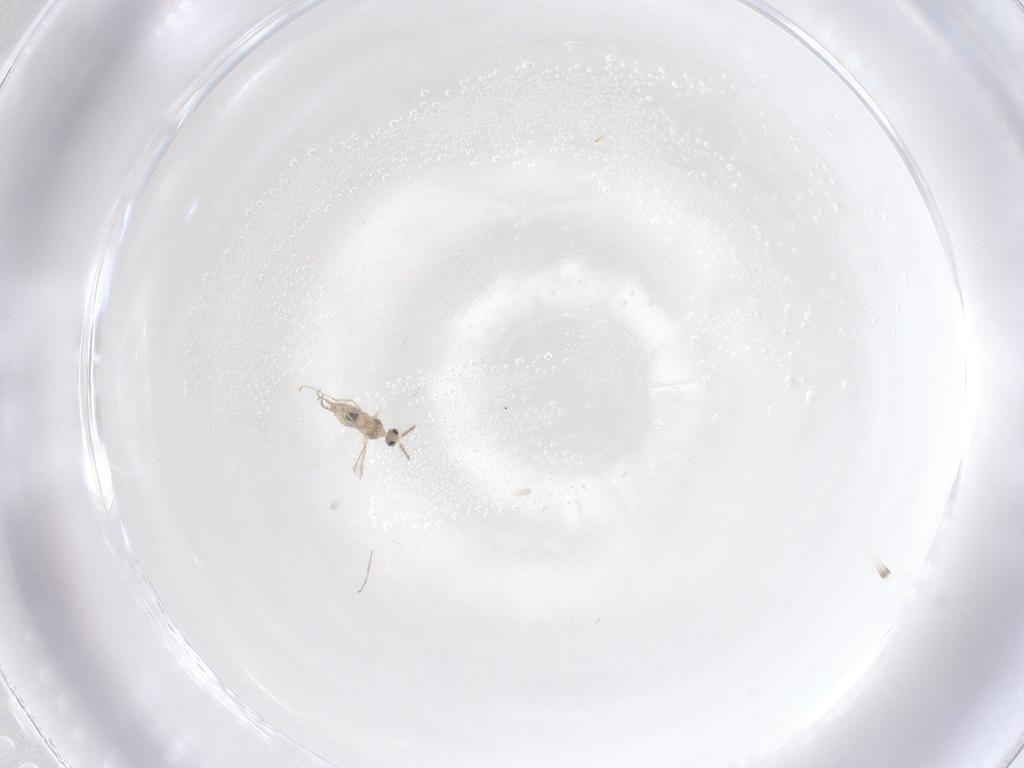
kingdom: Animalia
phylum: Arthropoda
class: Insecta
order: Diptera
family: Cecidomyiidae
